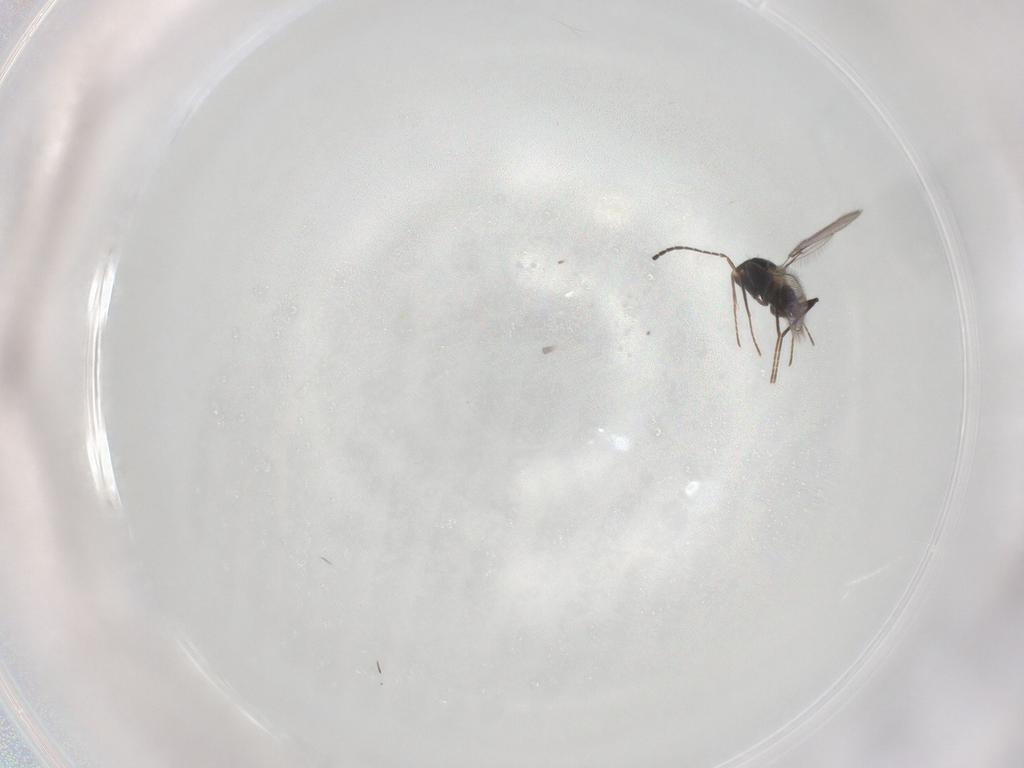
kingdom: Animalia
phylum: Arthropoda
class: Insecta
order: Hymenoptera
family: Mymaridae
